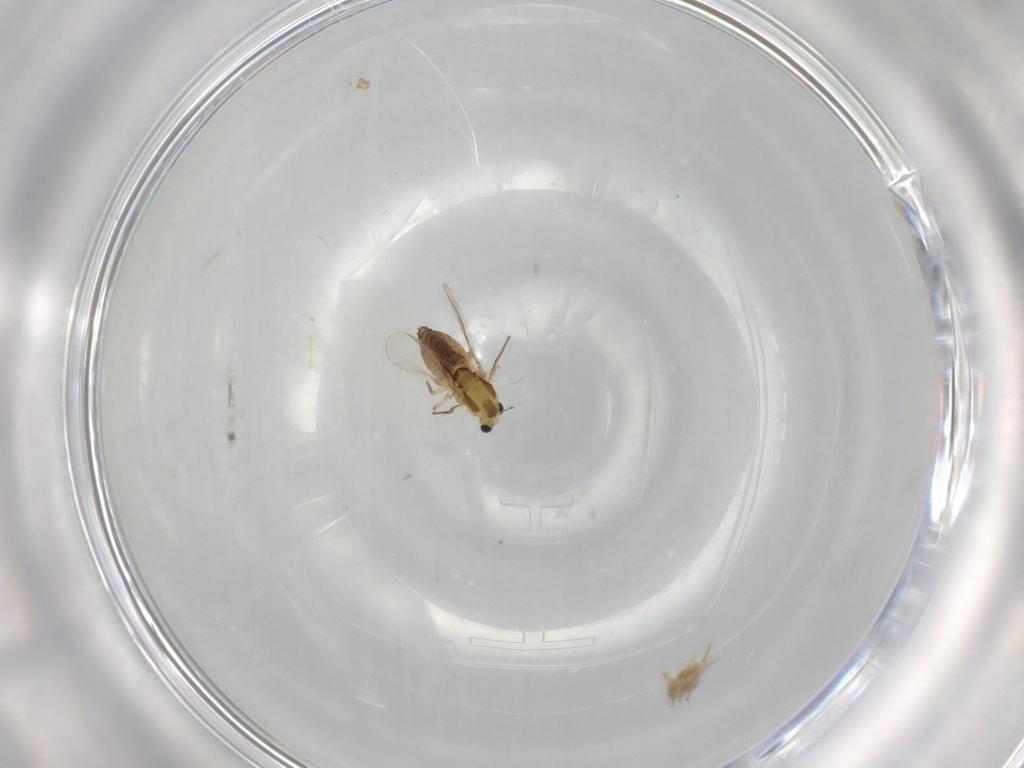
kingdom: Animalia
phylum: Arthropoda
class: Insecta
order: Diptera
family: Chironomidae
